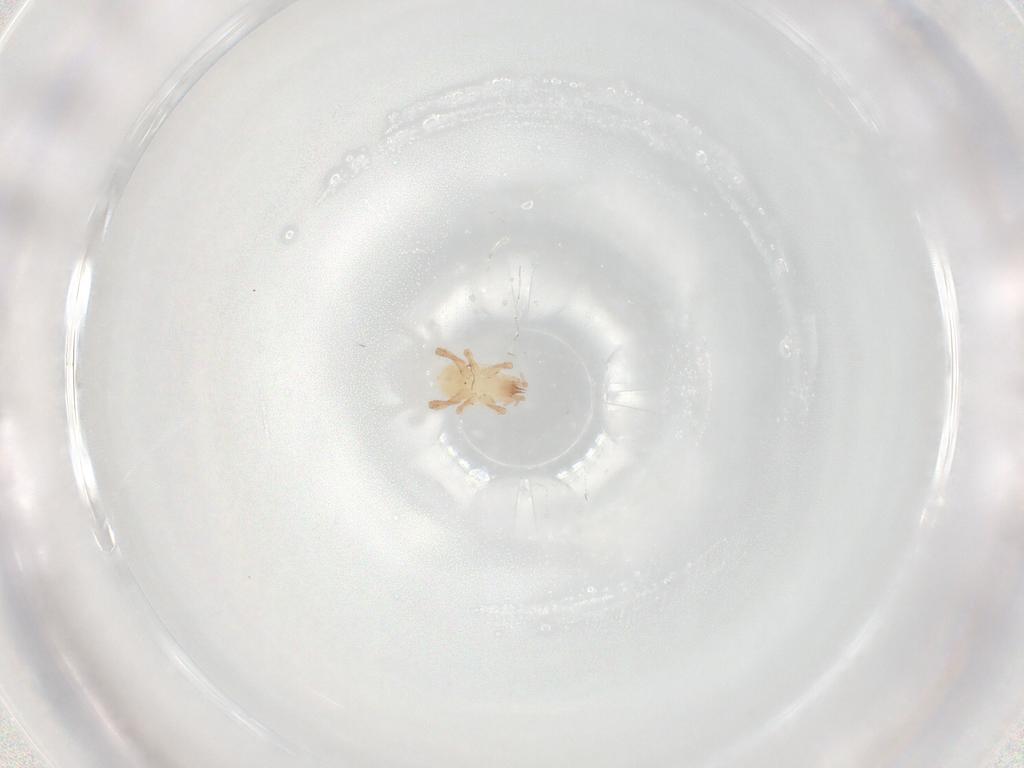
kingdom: Animalia
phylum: Arthropoda
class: Arachnida
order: Mesostigmata
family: Arctacaridae
